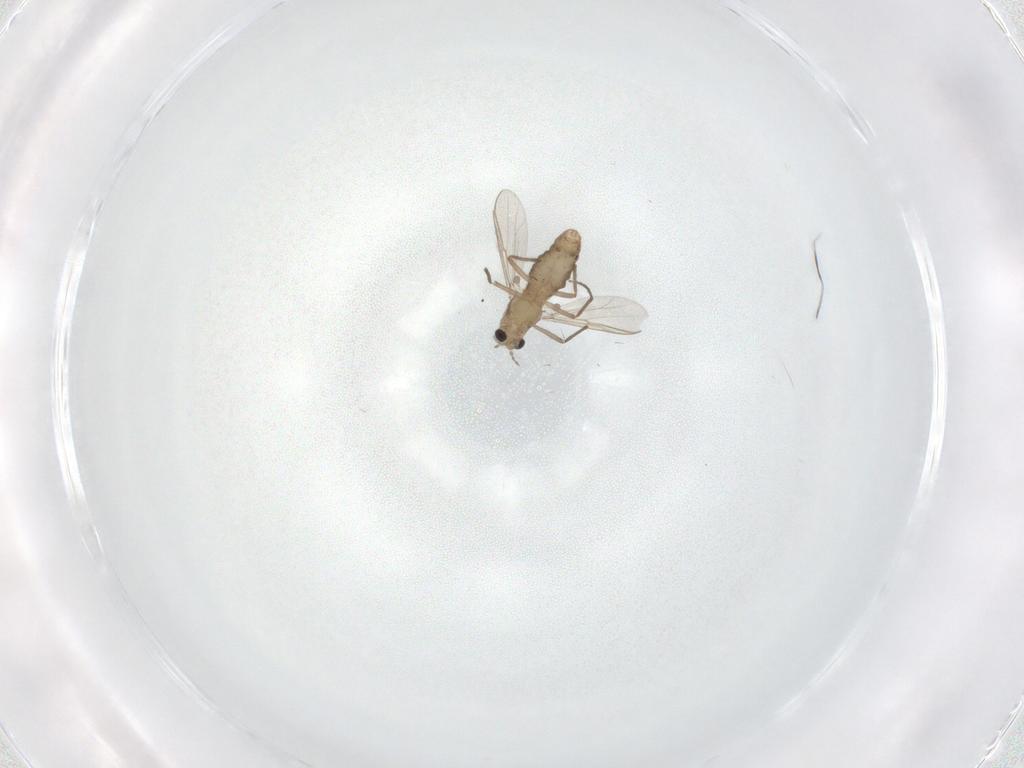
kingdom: Animalia
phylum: Arthropoda
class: Insecta
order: Diptera
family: Chironomidae
